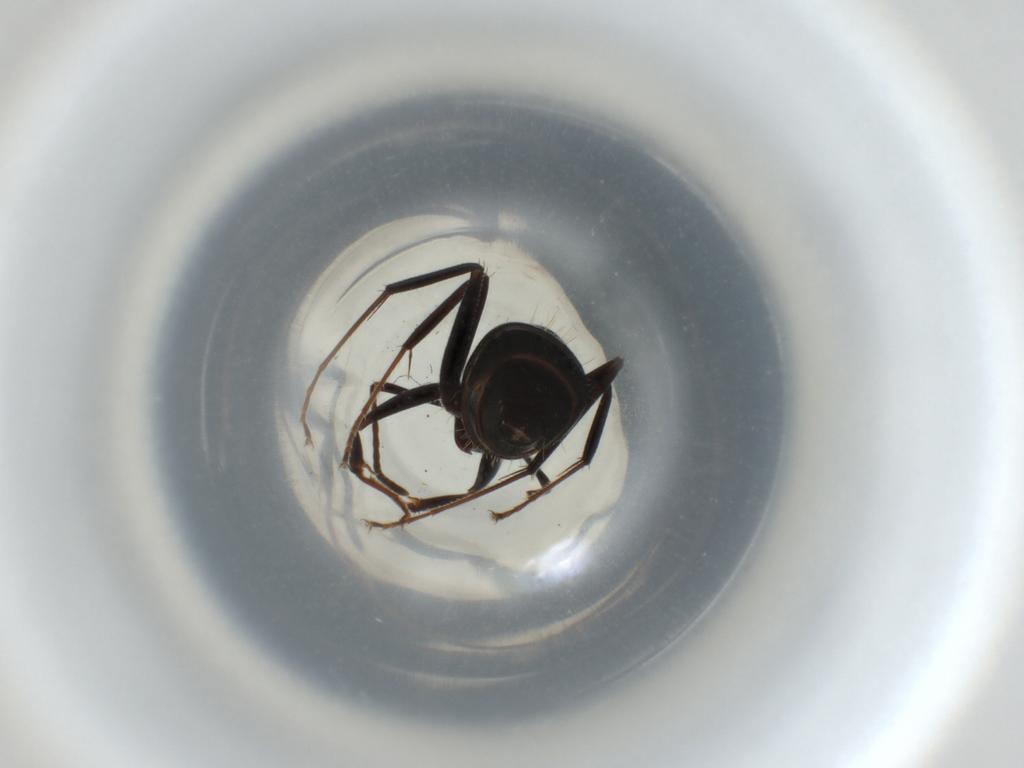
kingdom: Animalia
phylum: Arthropoda
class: Insecta
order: Hymenoptera
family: Formicidae
